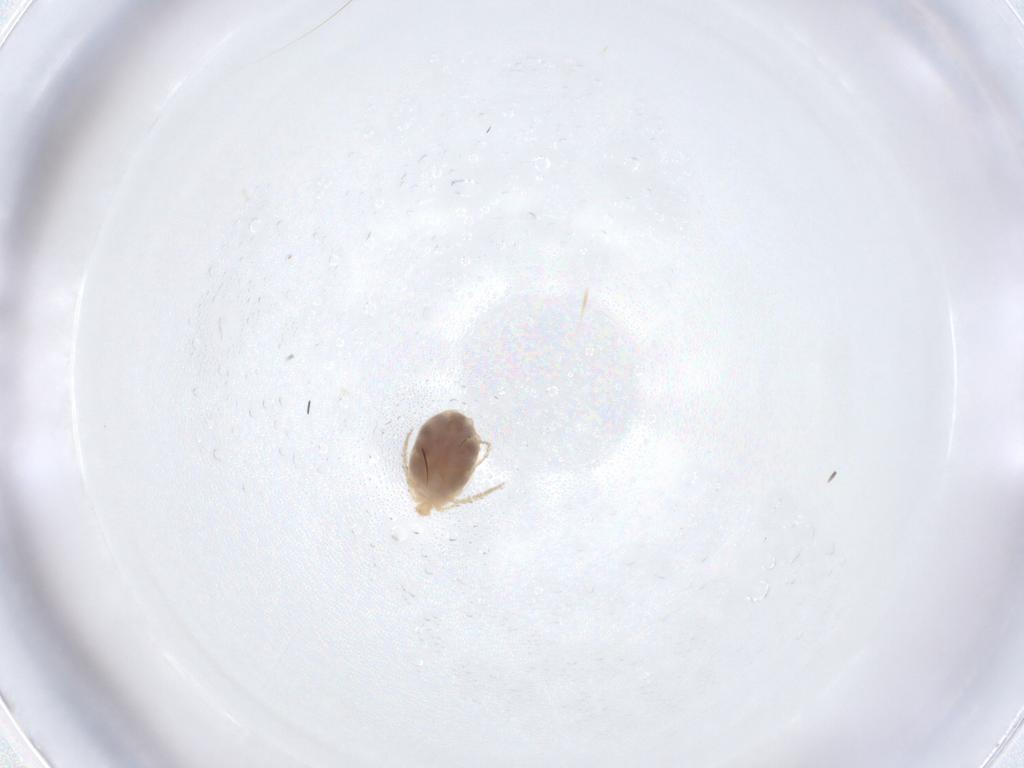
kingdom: Animalia
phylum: Arthropoda
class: Arachnida
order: Trombidiformes
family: Erythraeidae
